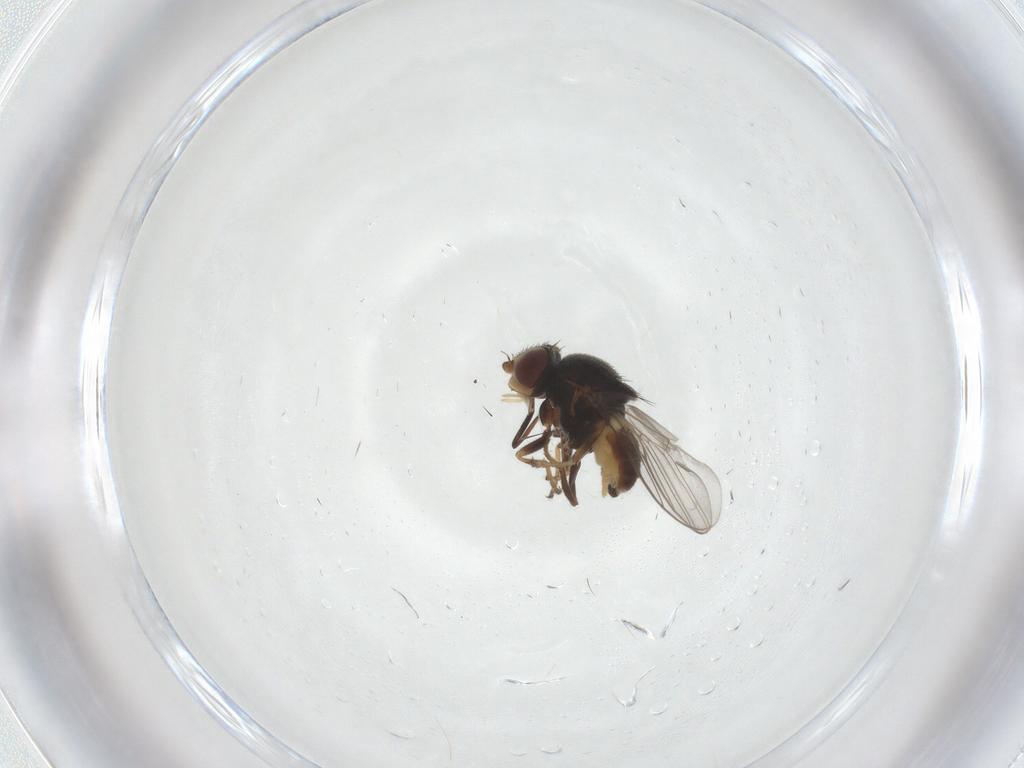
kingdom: Animalia
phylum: Arthropoda
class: Insecta
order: Diptera
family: Chloropidae
